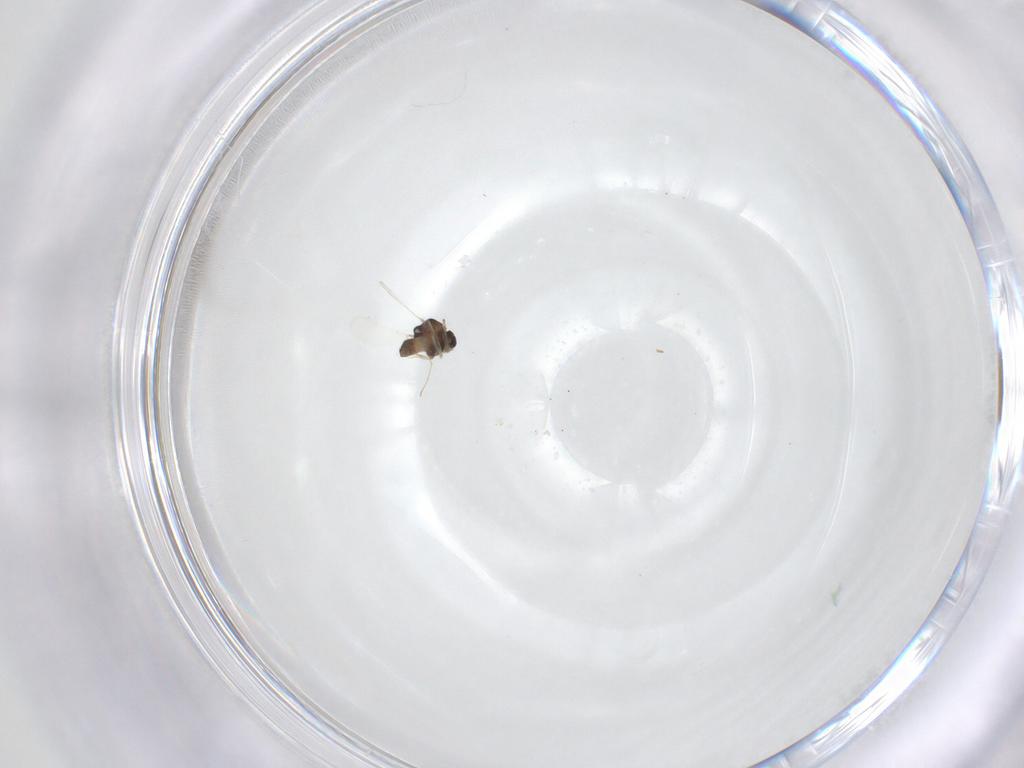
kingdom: Animalia
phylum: Arthropoda
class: Insecta
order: Diptera
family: Chironomidae
